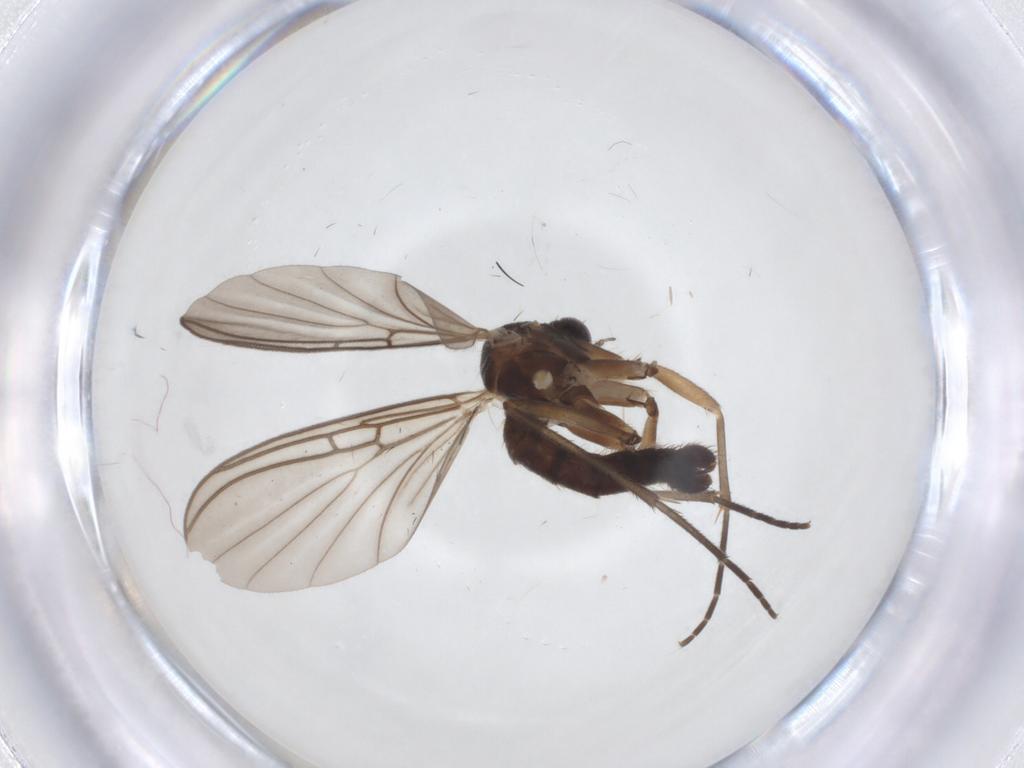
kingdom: Animalia
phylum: Arthropoda
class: Insecta
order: Diptera
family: Mycetophilidae
